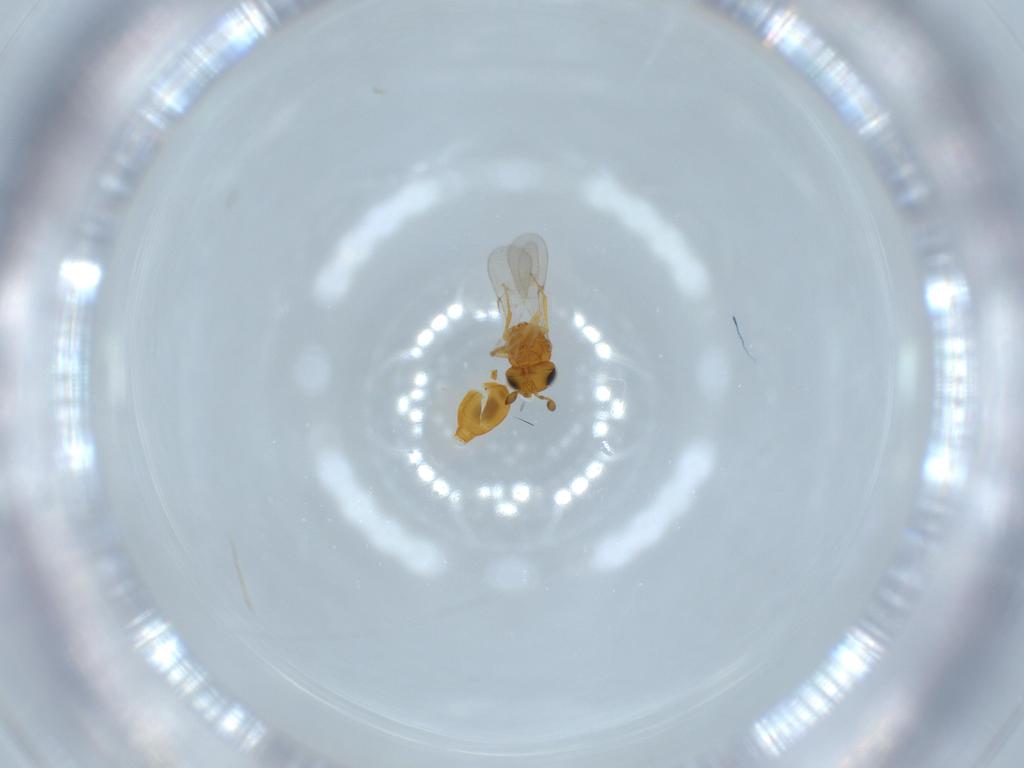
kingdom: Animalia
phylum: Arthropoda
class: Insecta
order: Hymenoptera
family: Scelionidae
